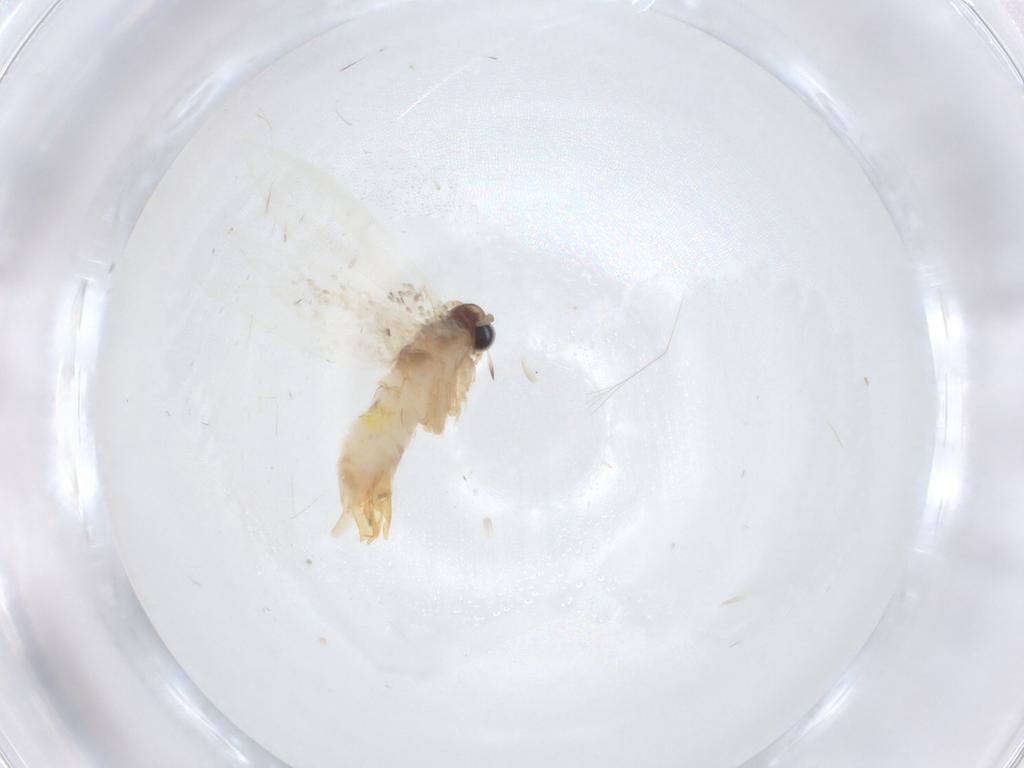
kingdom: Animalia
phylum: Arthropoda
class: Insecta
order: Lepidoptera
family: Tineidae
